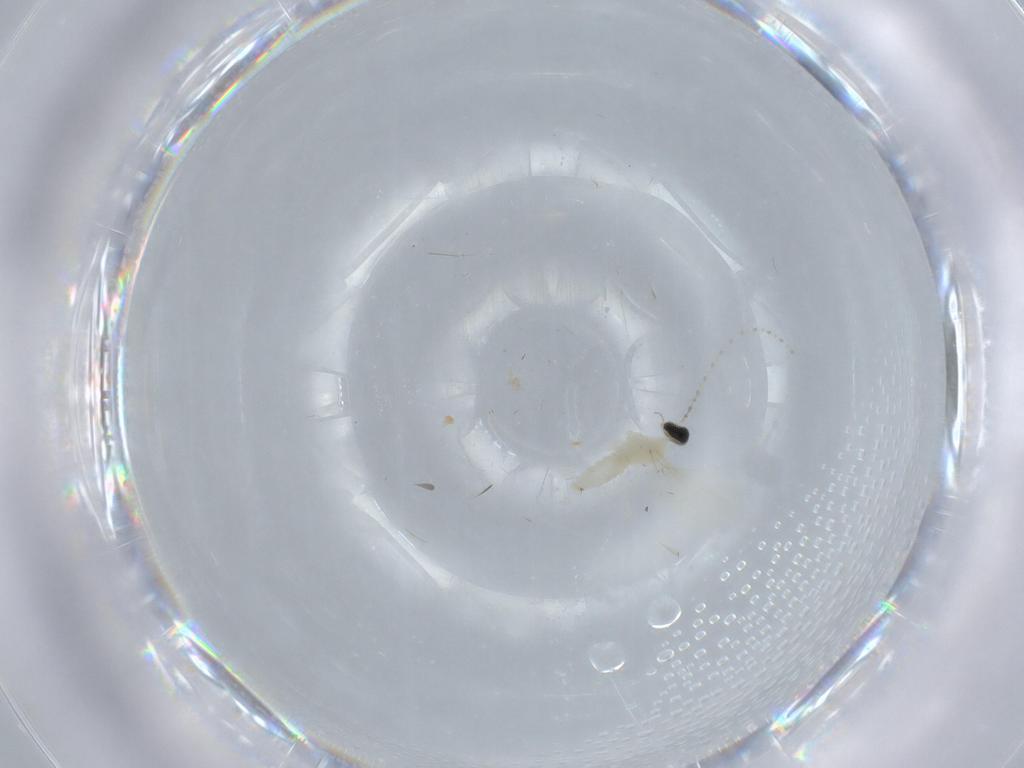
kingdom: Animalia
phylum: Arthropoda
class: Insecta
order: Diptera
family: Cecidomyiidae
